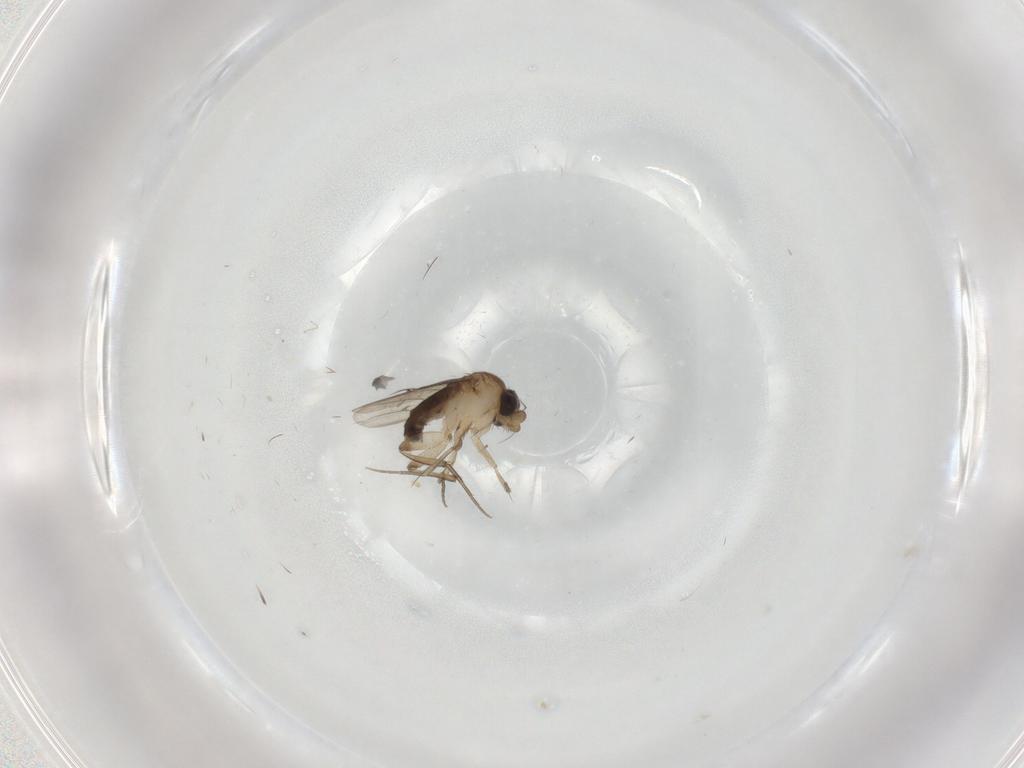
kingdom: Animalia
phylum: Arthropoda
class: Insecta
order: Diptera
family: Phoridae
